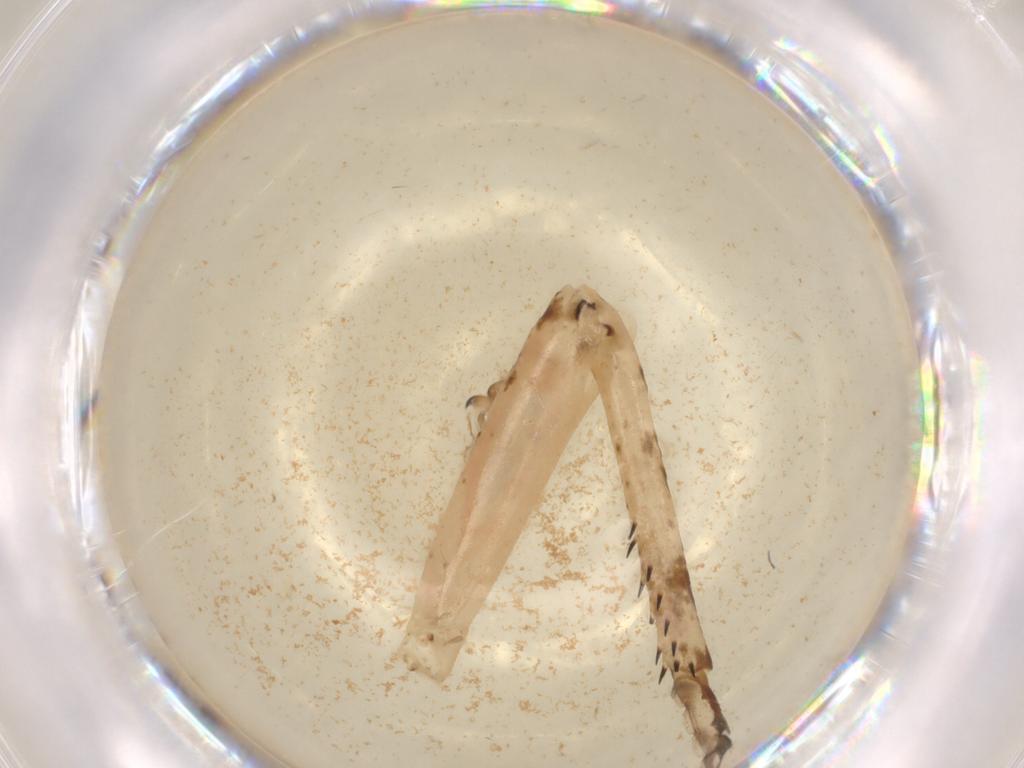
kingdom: Animalia
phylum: Arthropoda
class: Insecta
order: Orthoptera
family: Acrididae
